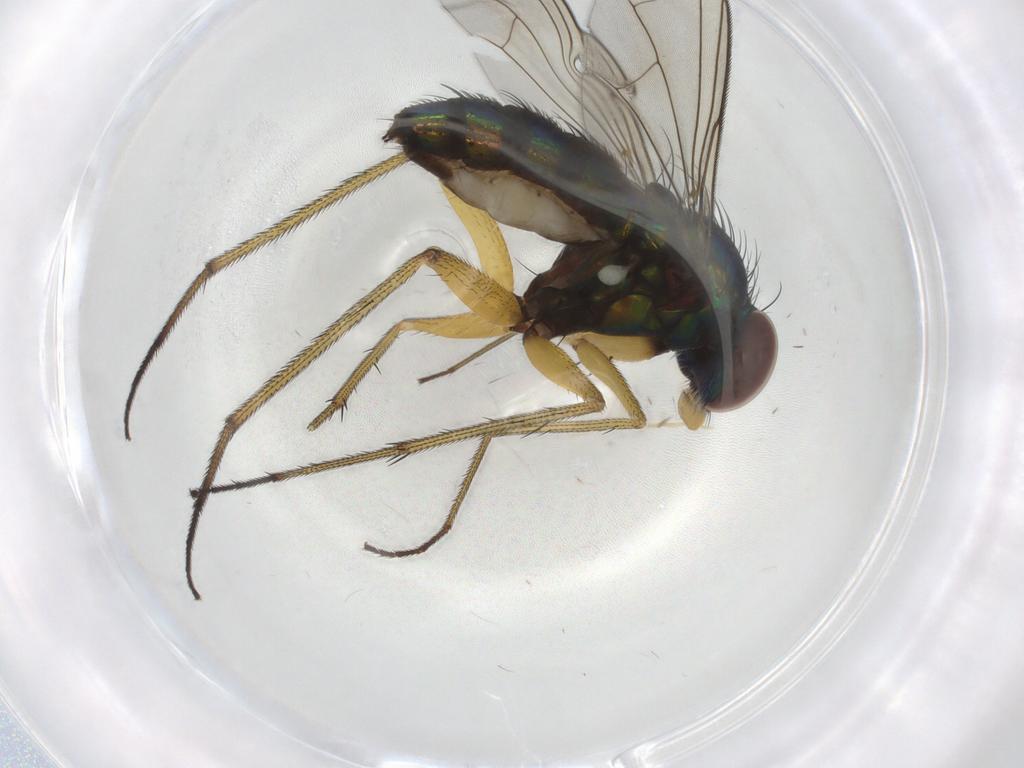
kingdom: Animalia
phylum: Arthropoda
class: Insecta
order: Diptera
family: Dolichopodidae
